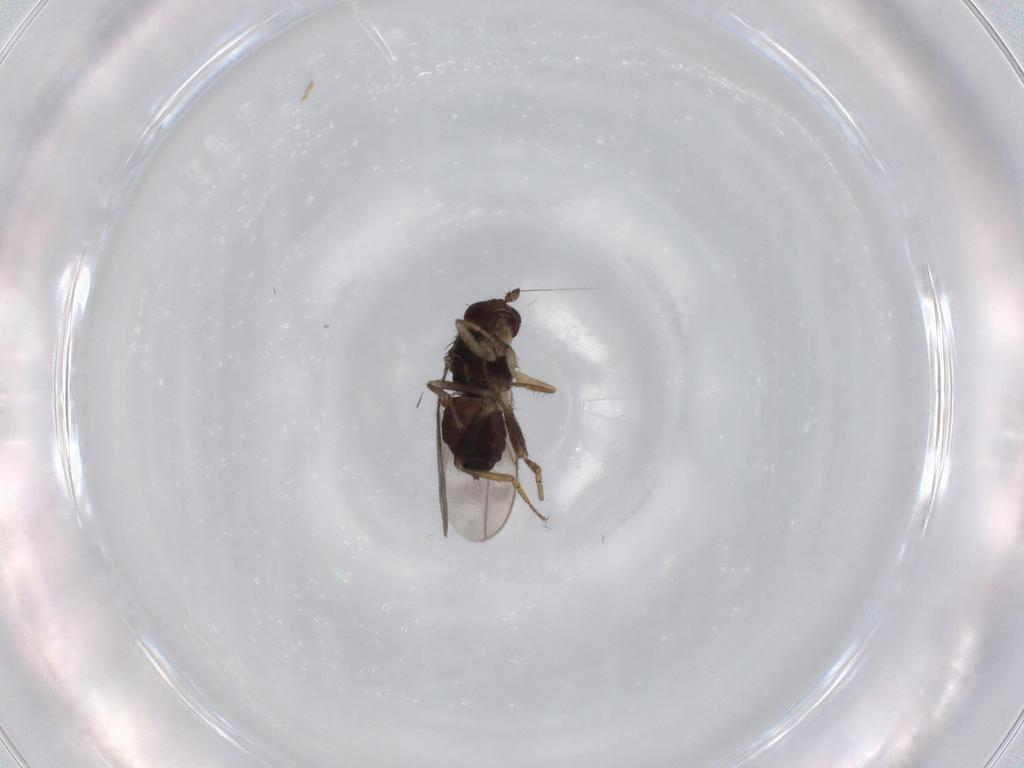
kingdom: Animalia
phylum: Arthropoda
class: Insecta
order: Diptera
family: Sphaeroceridae
